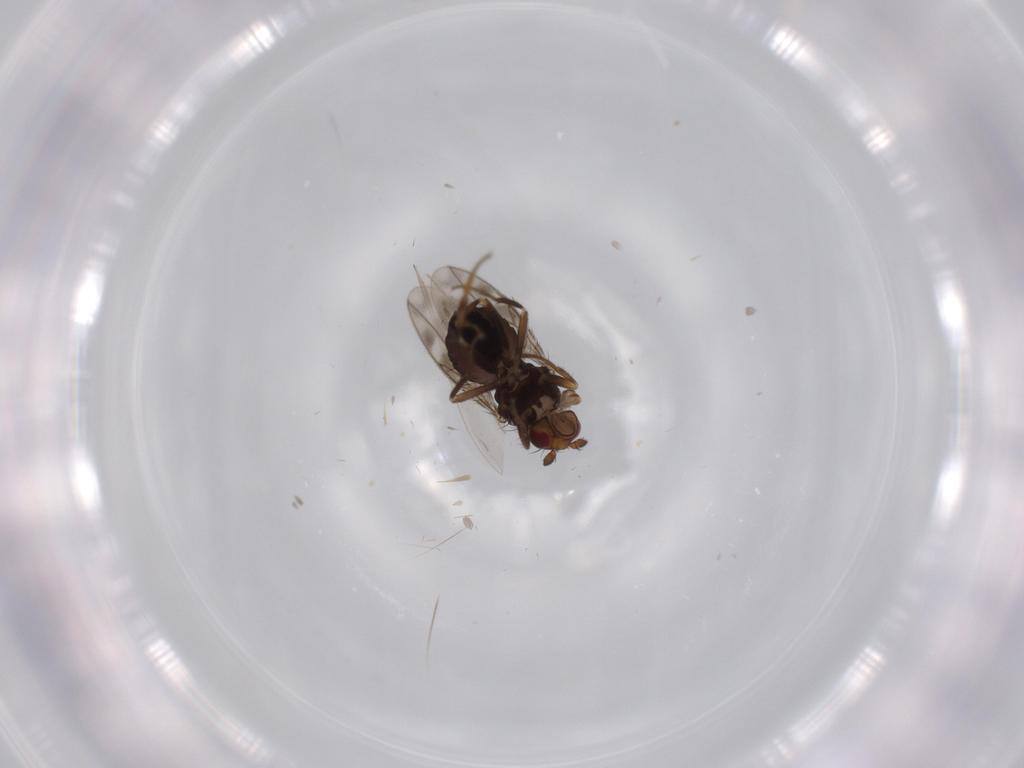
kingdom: Animalia
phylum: Arthropoda
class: Insecta
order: Diptera
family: Sphaeroceridae
